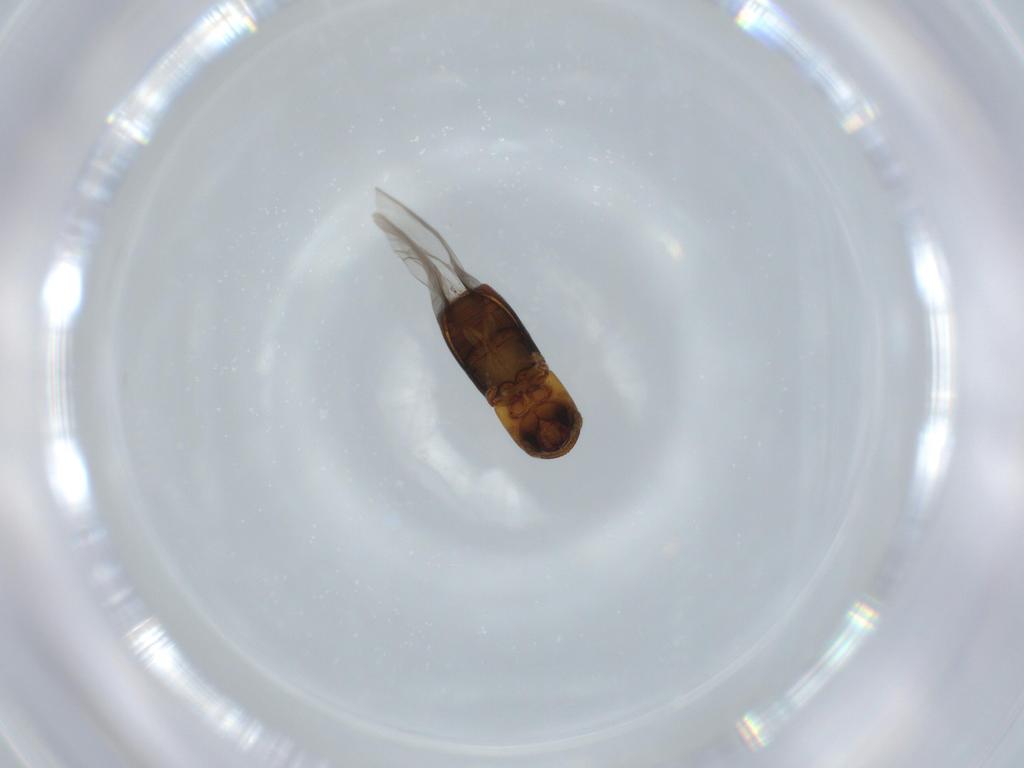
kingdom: Animalia
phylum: Arthropoda
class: Insecta
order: Coleoptera
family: Curculionidae
